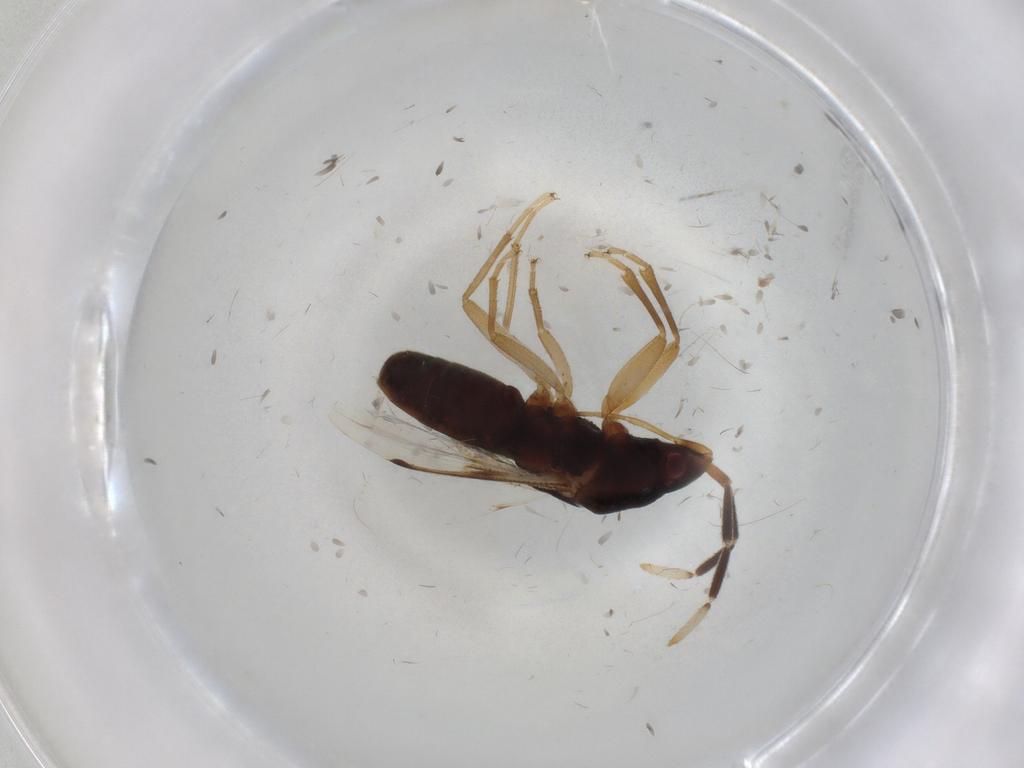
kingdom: Animalia
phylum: Arthropoda
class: Insecta
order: Hemiptera
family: Rhyparochromidae
